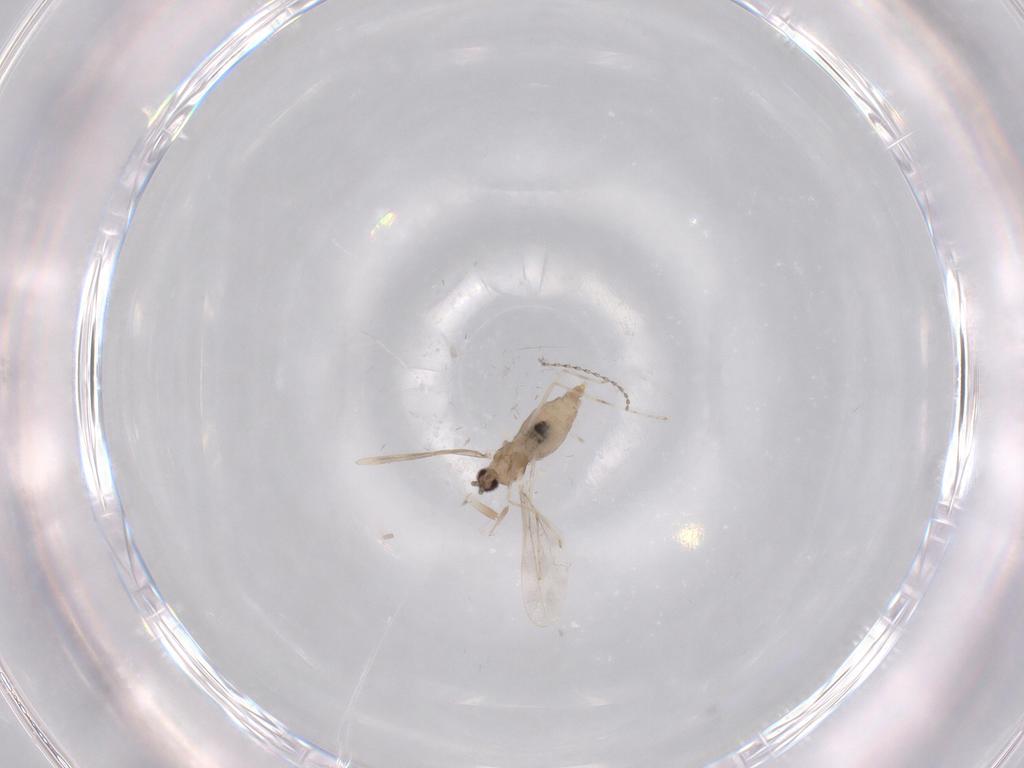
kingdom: Animalia
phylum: Arthropoda
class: Insecta
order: Diptera
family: Cecidomyiidae
